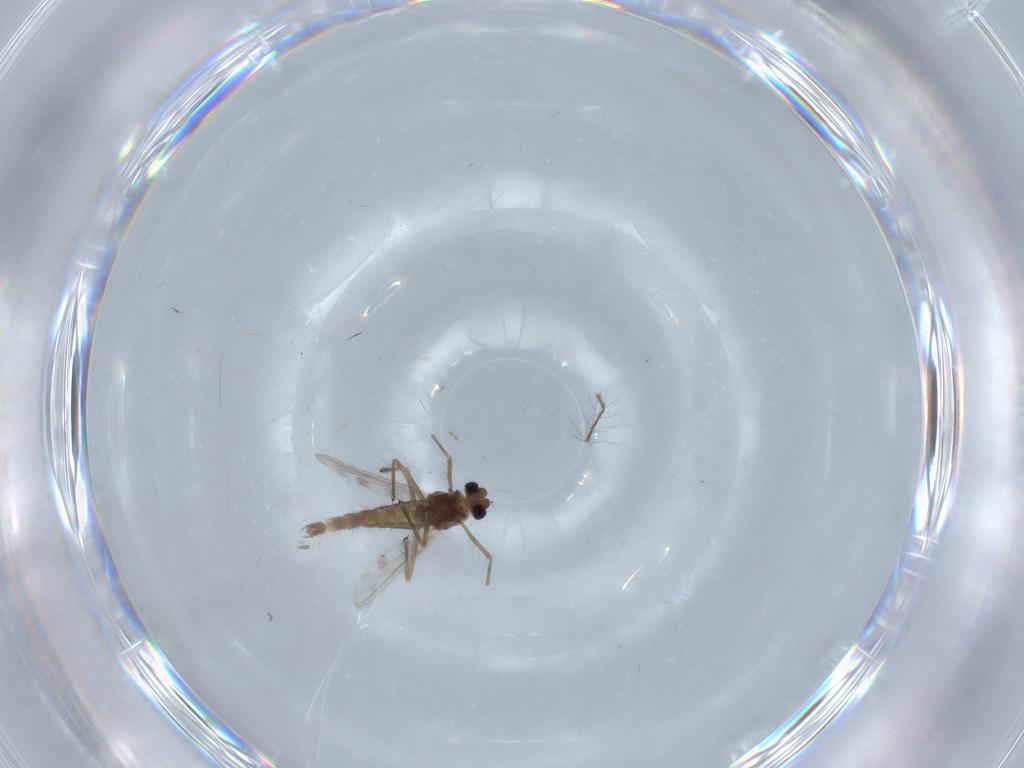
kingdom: Animalia
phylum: Arthropoda
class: Insecta
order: Diptera
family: Chironomidae
